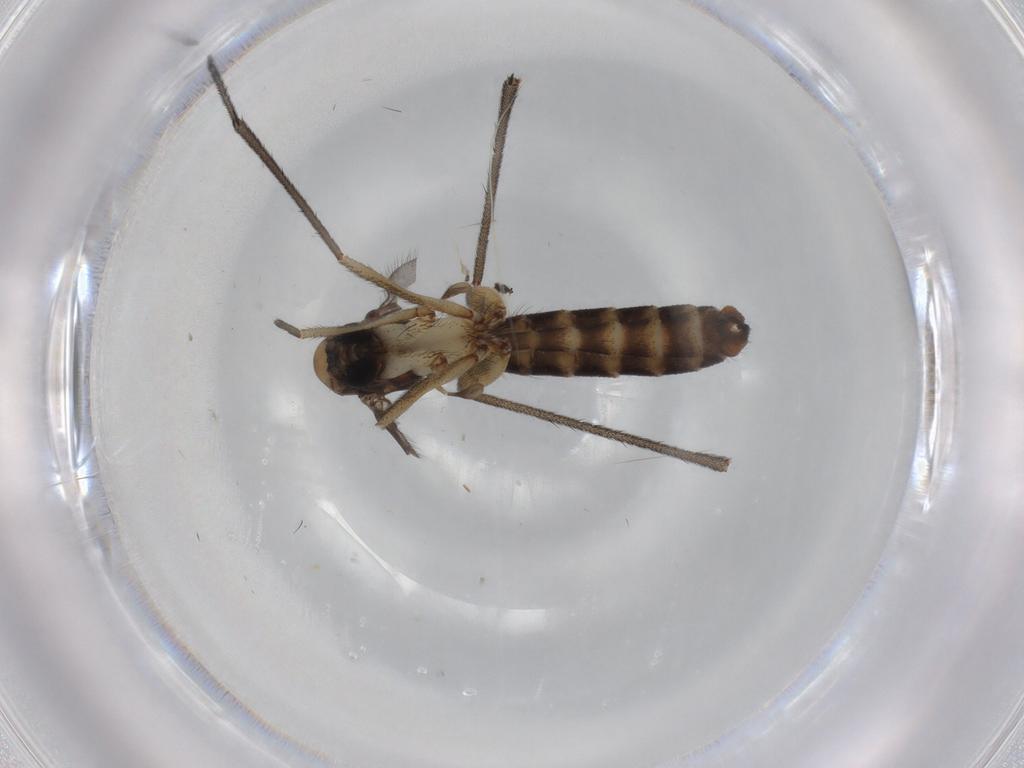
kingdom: Animalia
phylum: Arthropoda
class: Insecta
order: Diptera
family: Ditomyiidae
